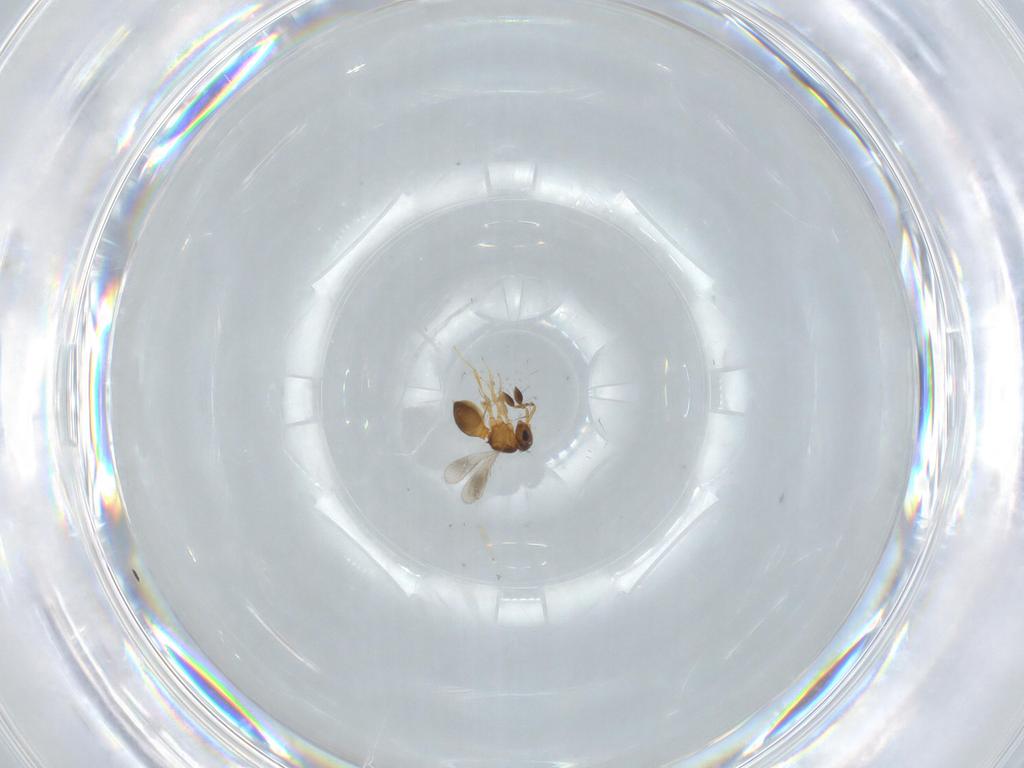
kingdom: Animalia
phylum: Arthropoda
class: Insecta
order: Hymenoptera
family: Scelionidae
